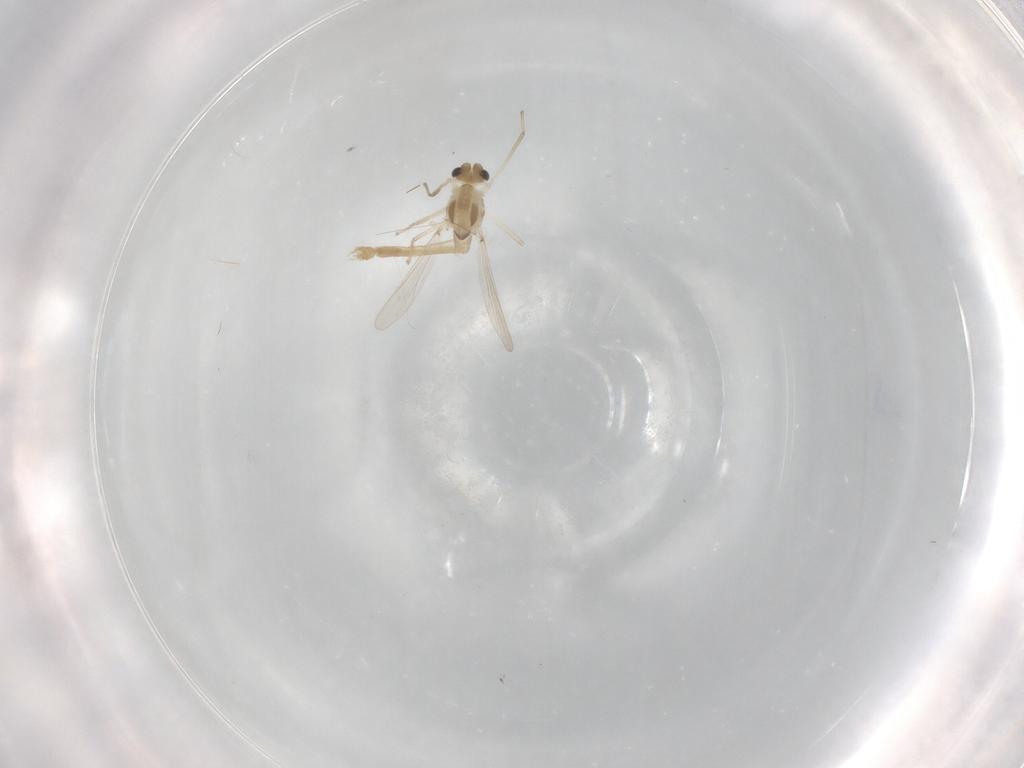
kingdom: Animalia
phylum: Arthropoda
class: Insecta
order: Diptera
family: Chironomidae
